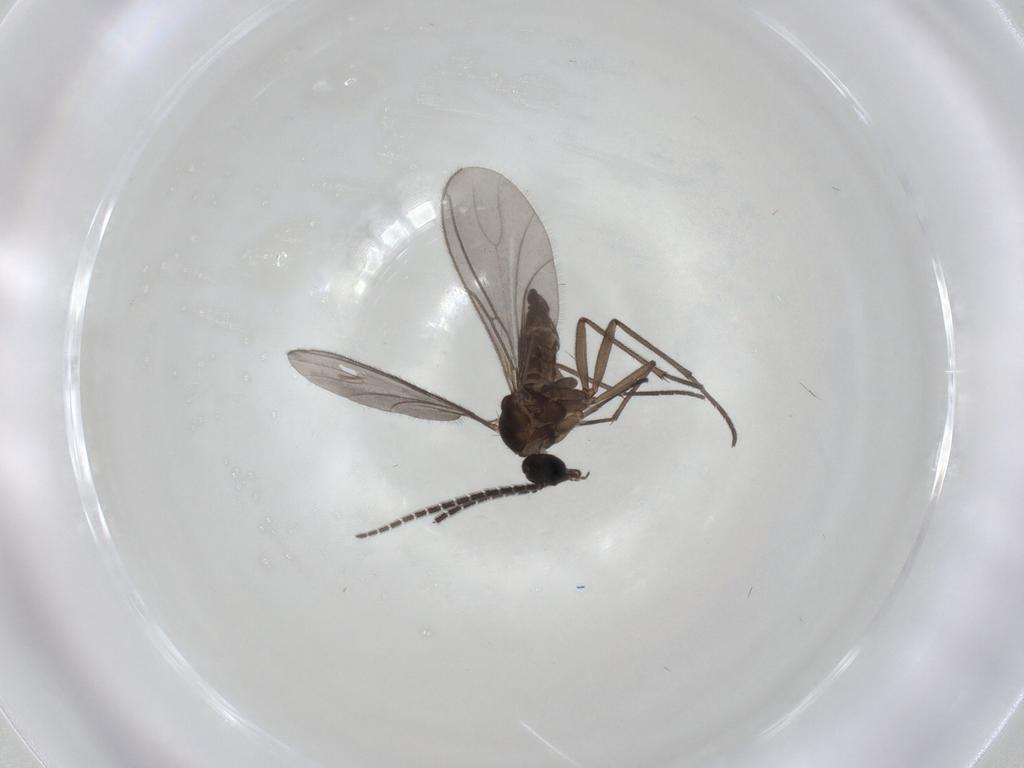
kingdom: Animalia
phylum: Arthropoda
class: Insecta
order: Diptera
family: Sciaridae
